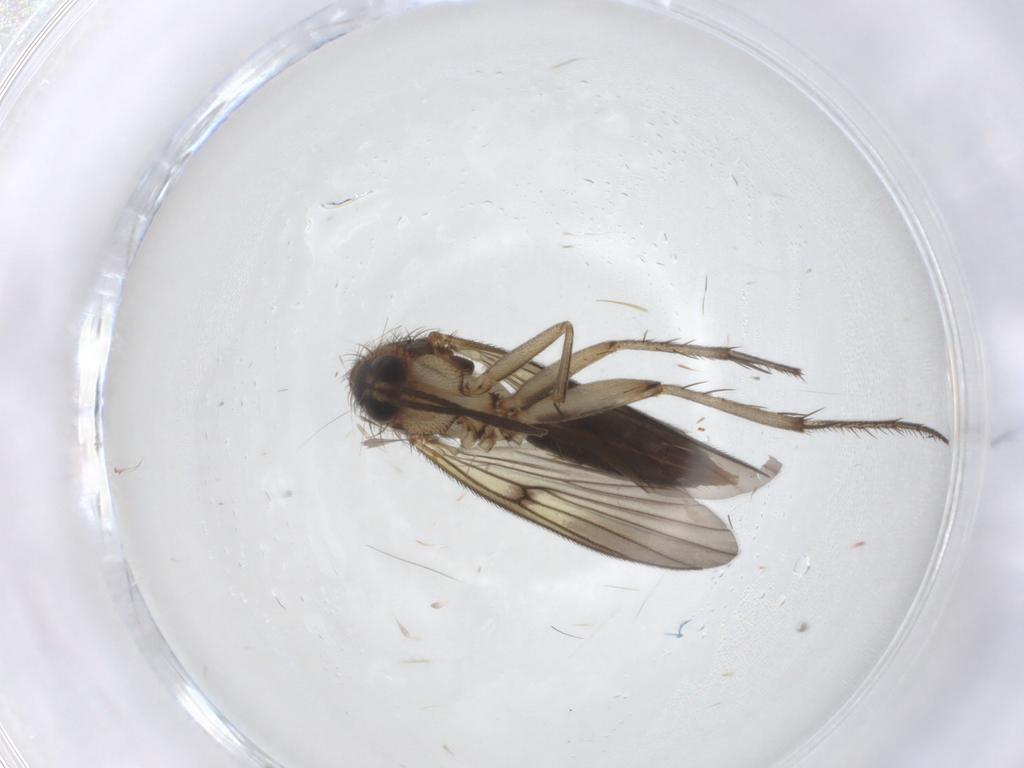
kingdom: Animalia
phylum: Arthropoda
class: Insecta
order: Diptera
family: Mycetophilidae
